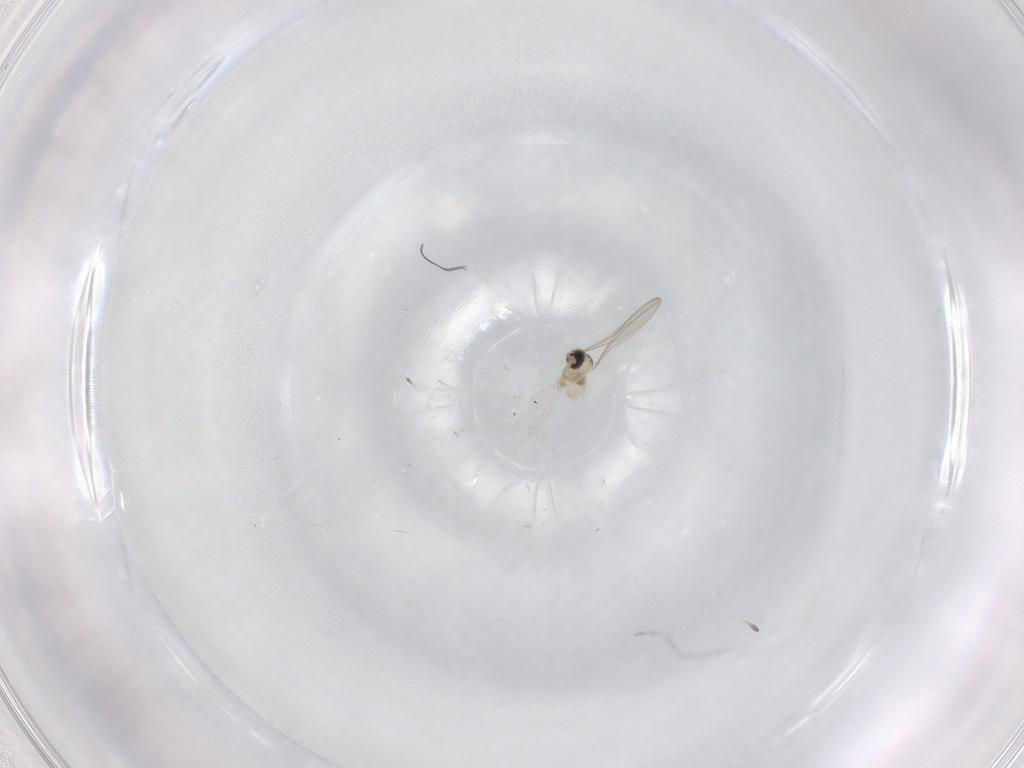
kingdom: Animalia
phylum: Arthropoda
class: Insecta
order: Diptera
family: Cecidomyiidae
